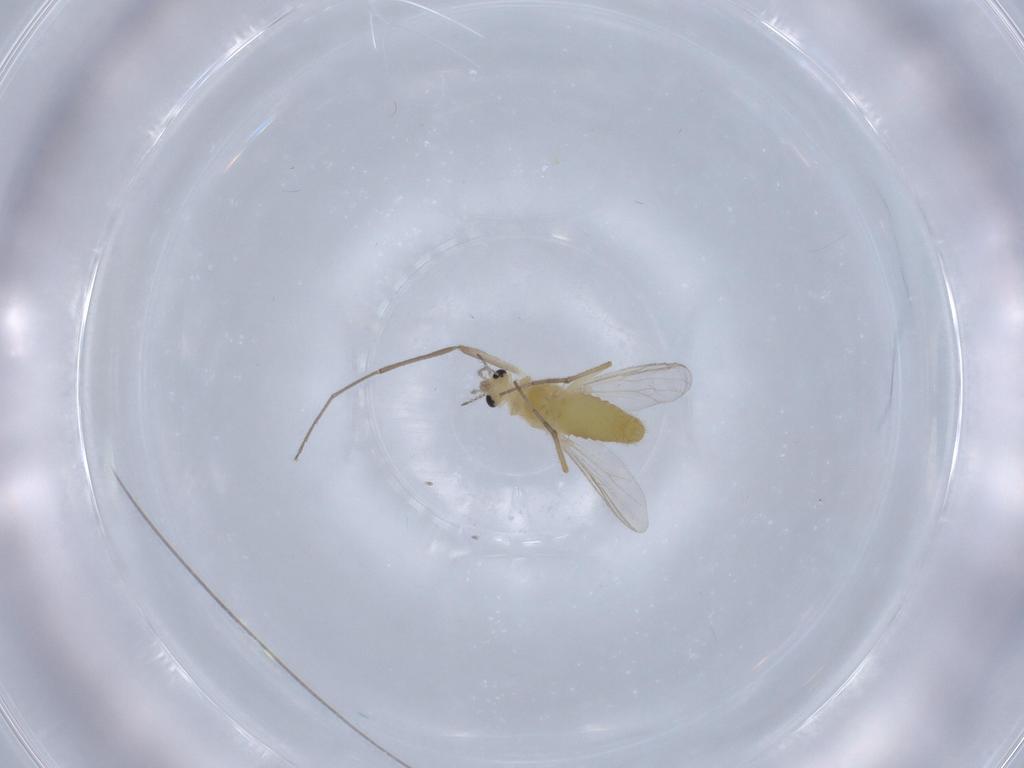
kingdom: Animalia
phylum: Arthropoda
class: Insecta
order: Diptera
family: Chironomidae
